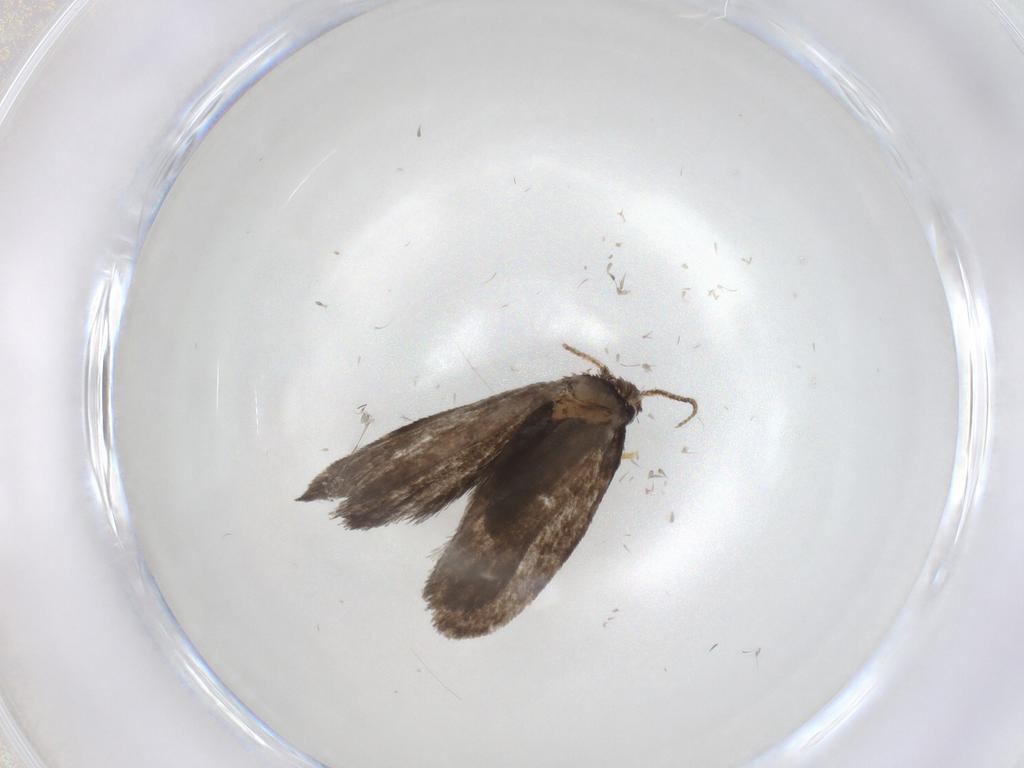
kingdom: Animalia
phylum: Arthropoda
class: Insecta
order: Lepidoptera
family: Psychidae
